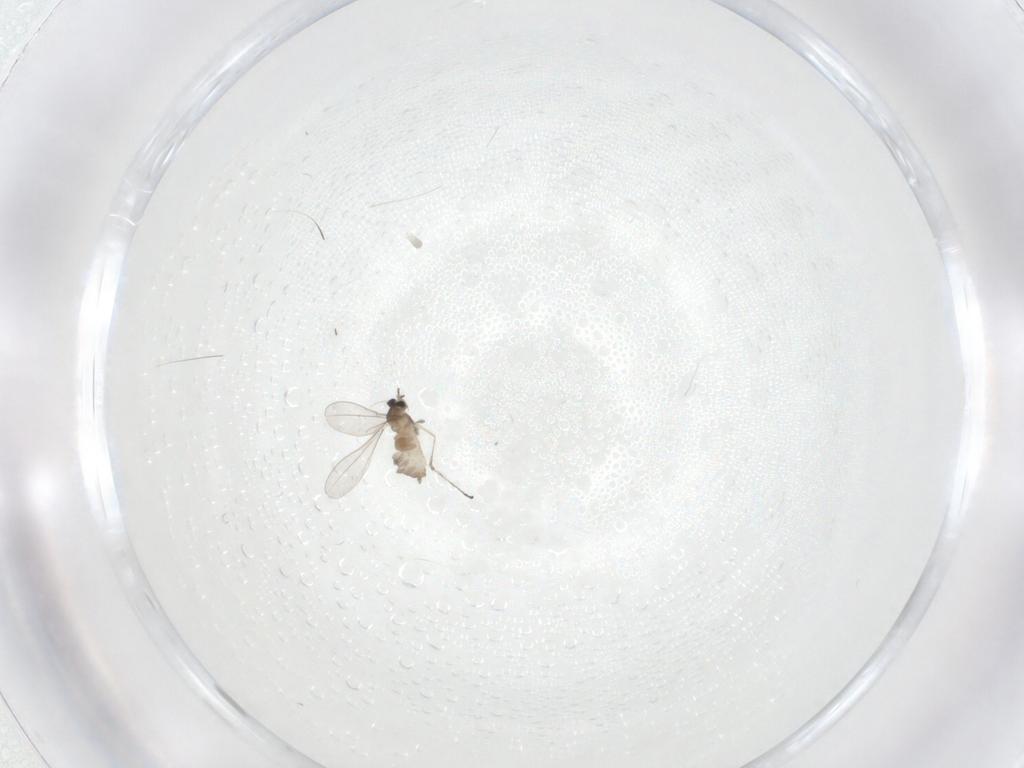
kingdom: Animalia
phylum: Arthropoda
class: Insecta
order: Diptera
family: Cecidomyiidae
